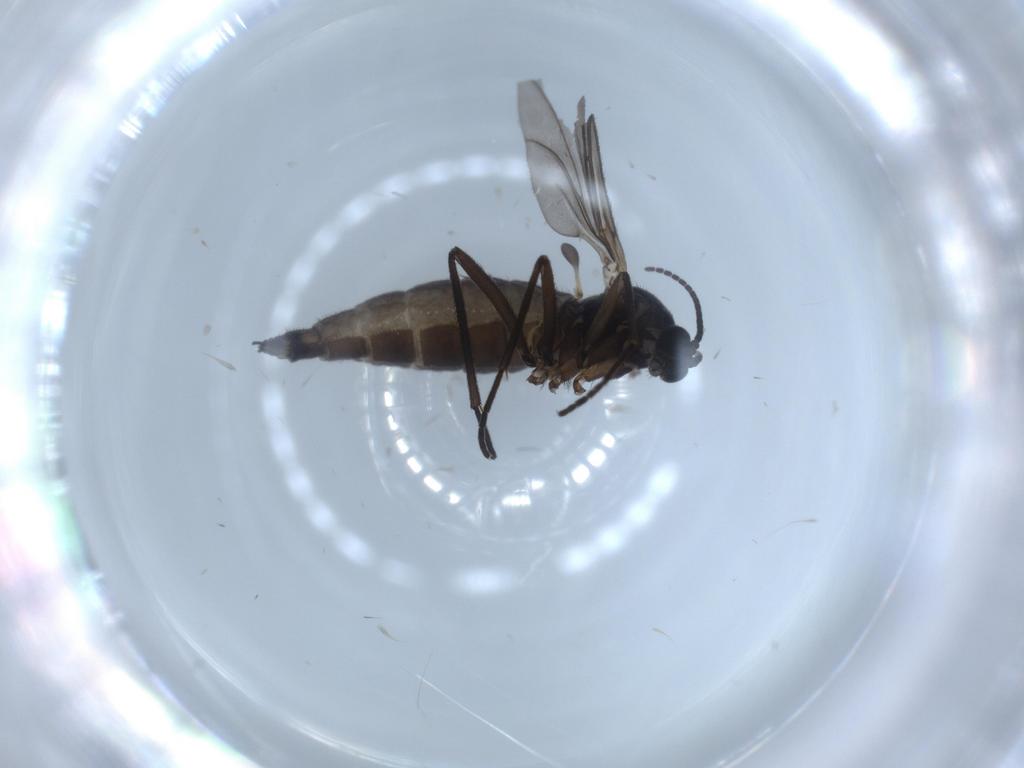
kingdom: Animalia
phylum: Arthropoda
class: Insecta
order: Diptera
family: Sciaridae
